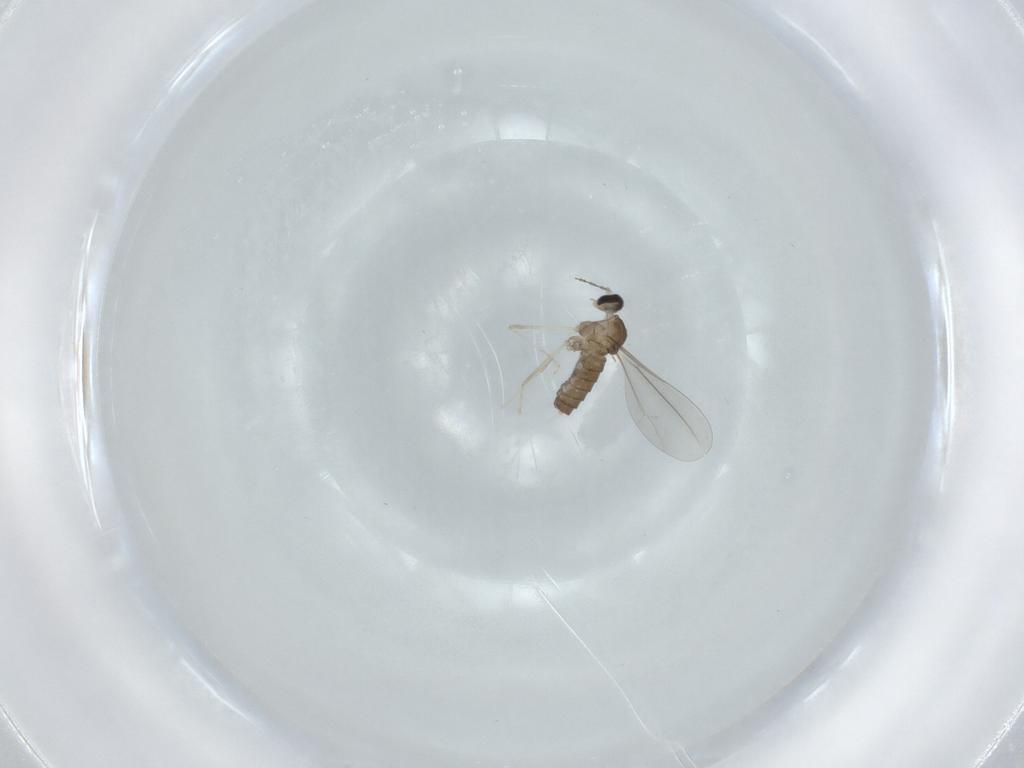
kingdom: Animalia
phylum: Arthropoda
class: Insecta
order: Diptera
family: Cecidomyiidae
